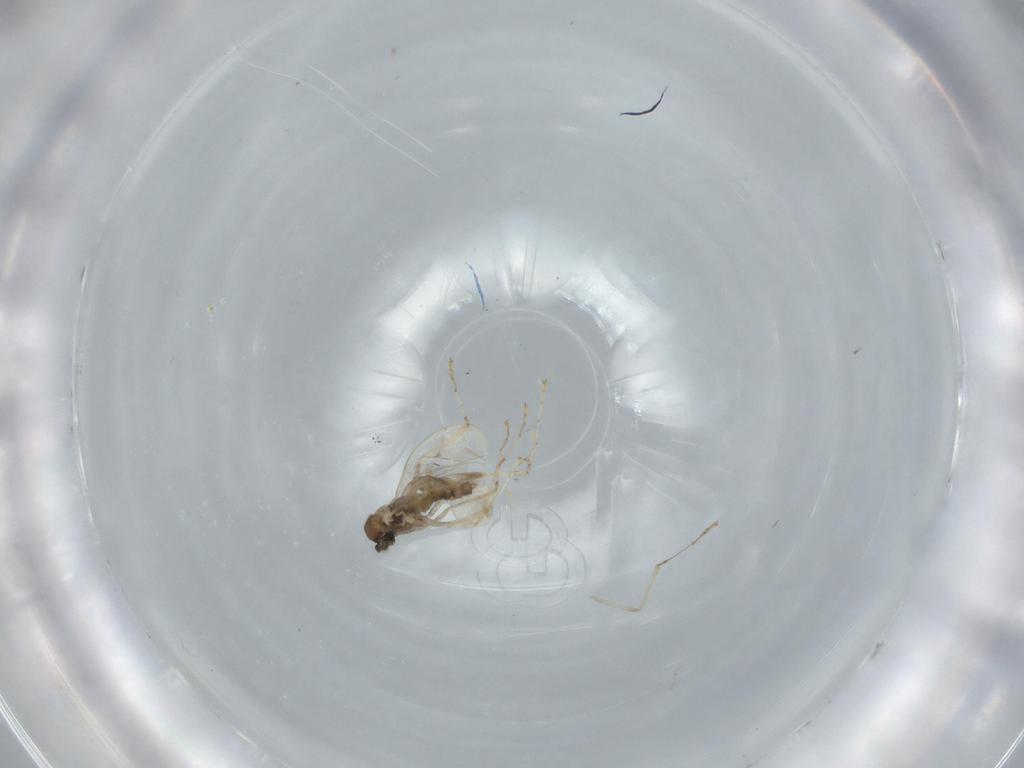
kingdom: Animalia
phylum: Arthropoda
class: Insecta
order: Diptera
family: Cecidomyiidae
